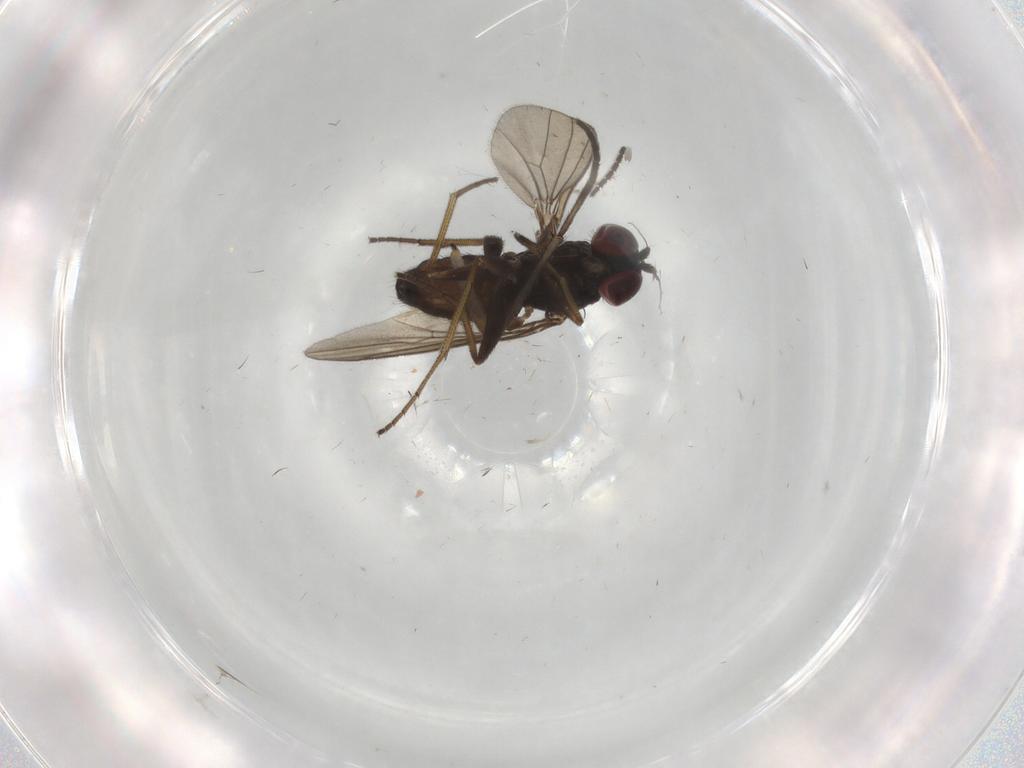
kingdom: Animalia
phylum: Arthropoda
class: Insecta
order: Diptera
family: Dolichopodidae
